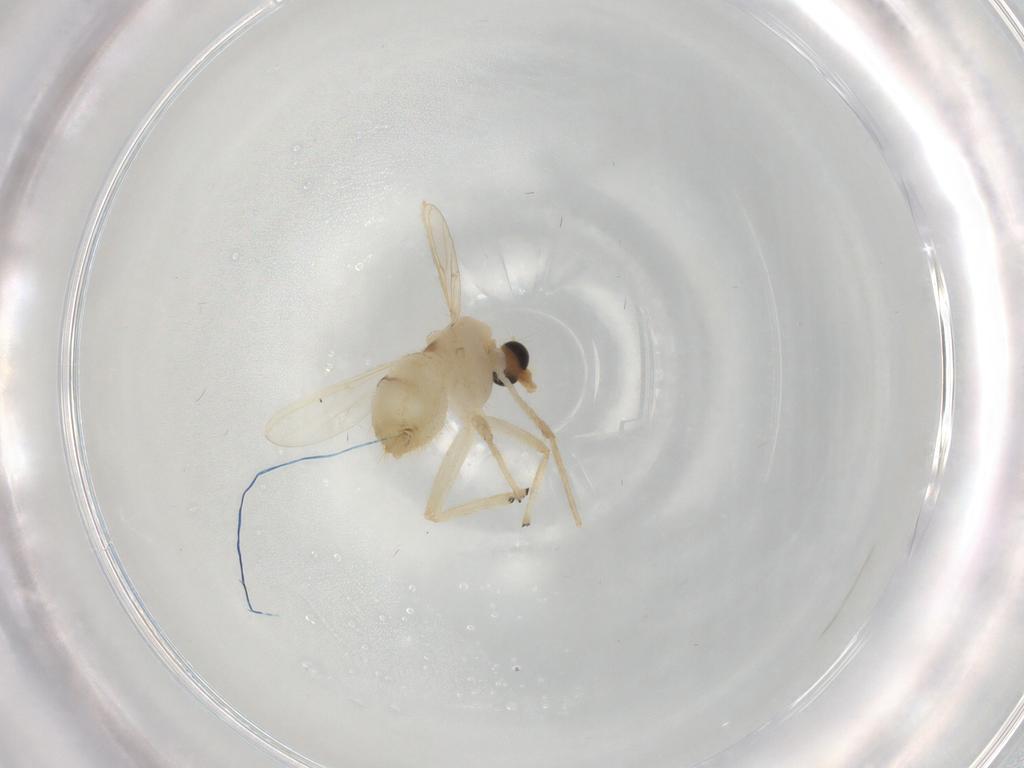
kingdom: Animalia
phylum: Arthropoda
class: Insecta
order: Diptera
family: Chironomidae
